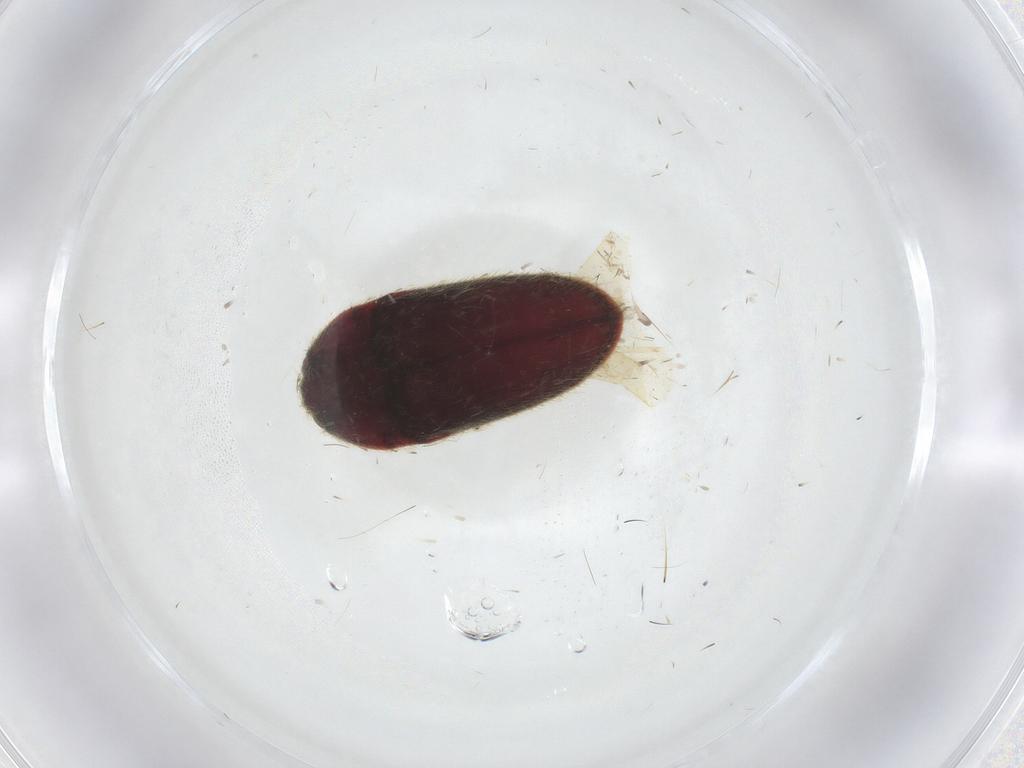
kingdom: Animalia
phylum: Arthropoda
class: Insecta
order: Coleoptera
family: Throscidae
